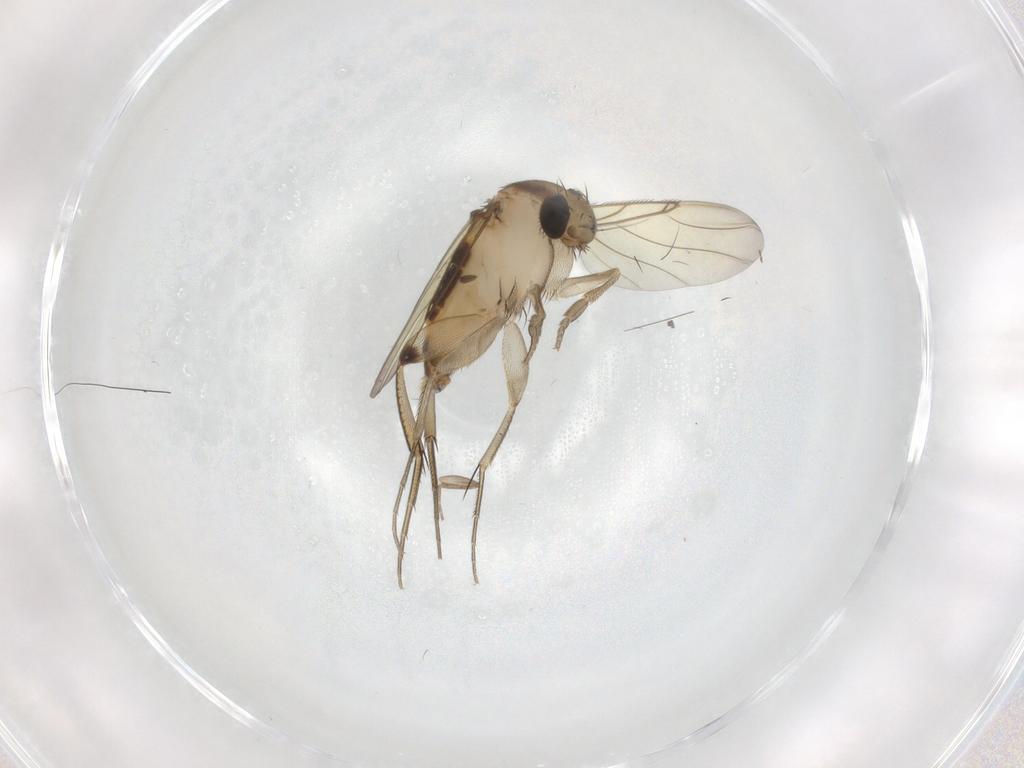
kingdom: Animalia
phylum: Arthropoda
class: Insecta
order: Diptera
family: Phoridae
